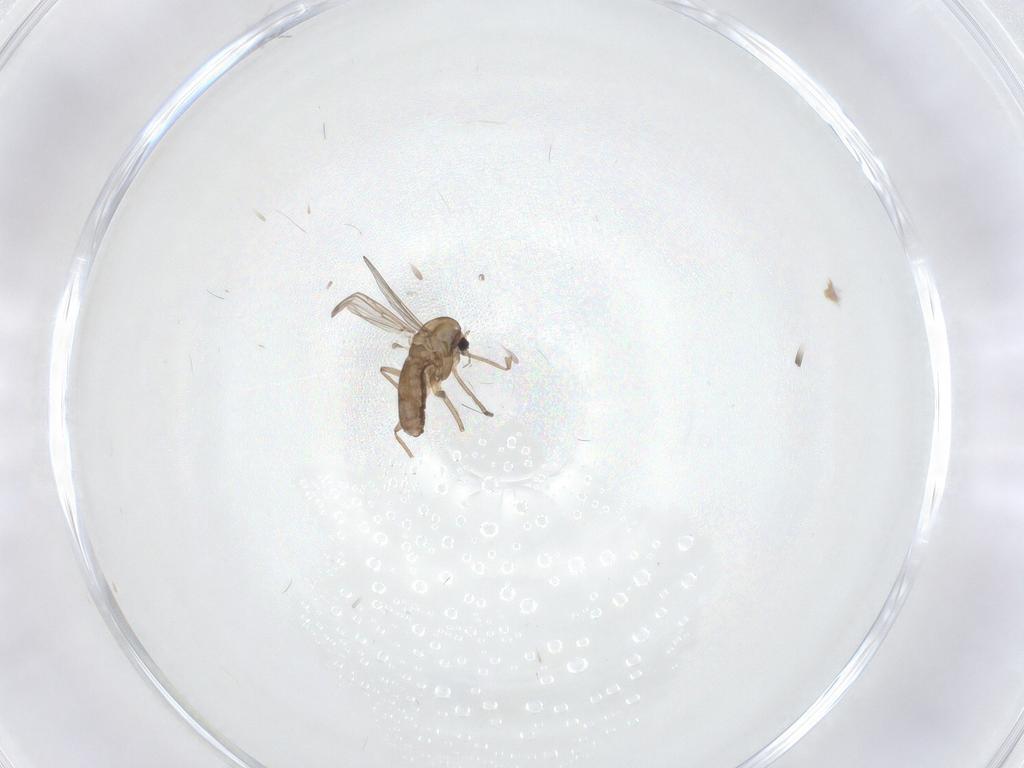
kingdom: Animalia
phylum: Arthropoda
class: Insecta
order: Diptera
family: Chironomidae
